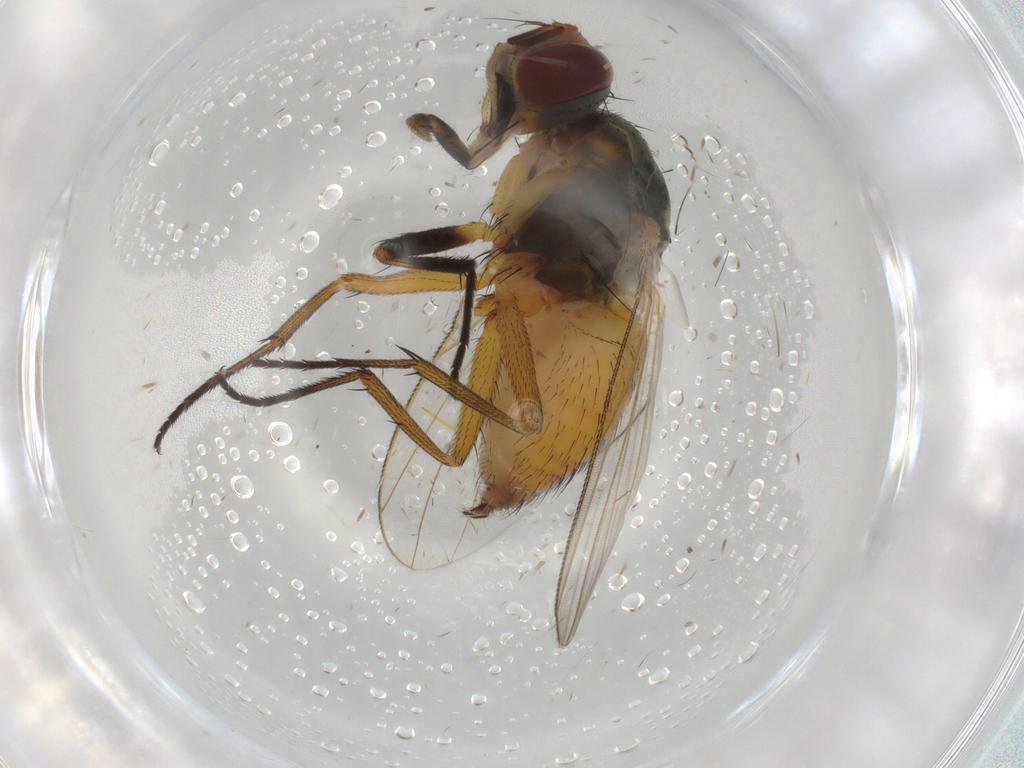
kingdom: Animalia
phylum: Arthropoda
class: Insecta
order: Diptera
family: Muscidae
